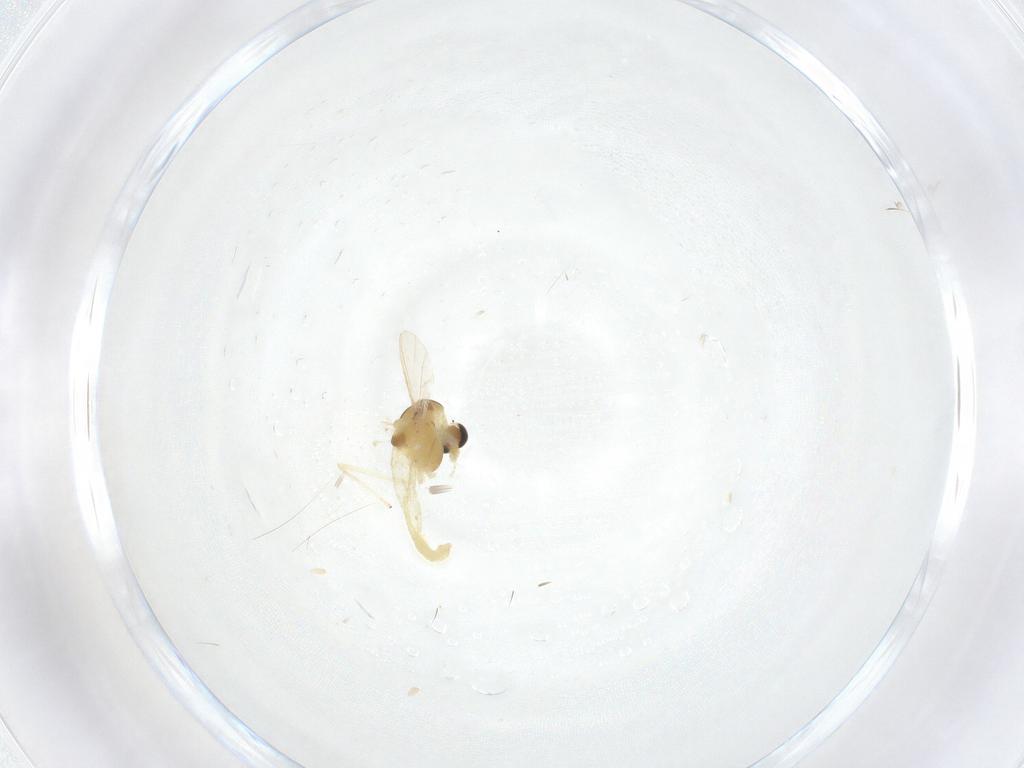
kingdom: Animalia
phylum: Arthropoda
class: Insecta
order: Diptera
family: Chironomidae
